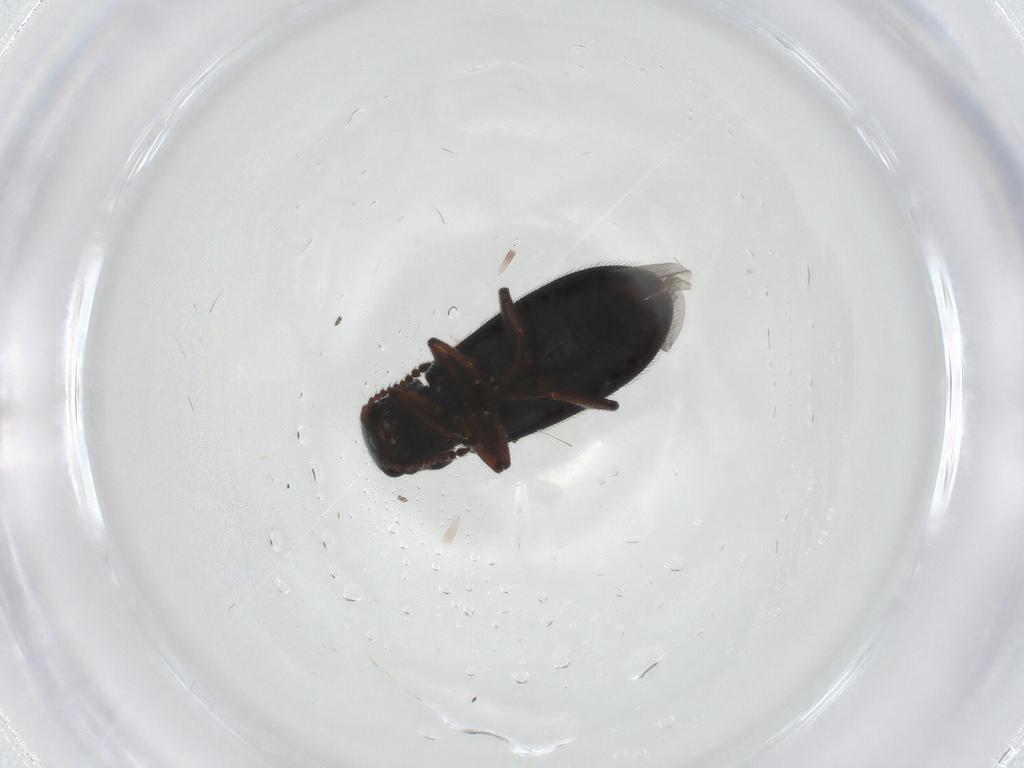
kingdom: Animalia
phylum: Arthropoda
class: Insecta
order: Coleoptera
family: Melyridae
